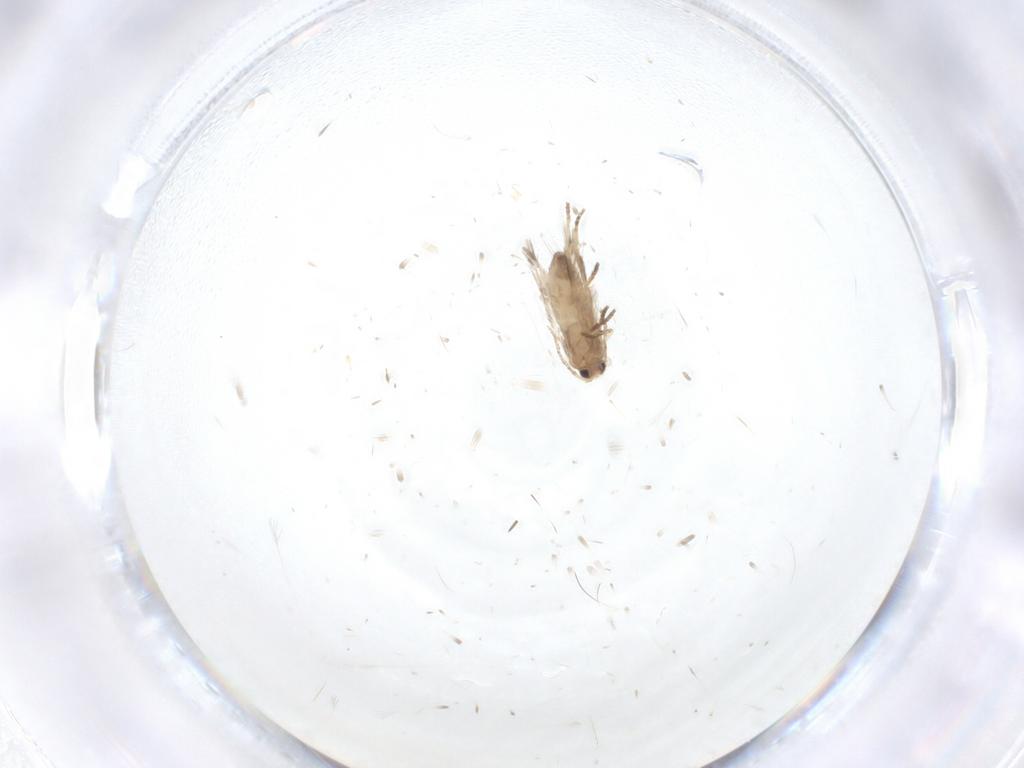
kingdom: Animalia
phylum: Arthropoda
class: Insecta
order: Lepidoptera
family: Nepticulidae
